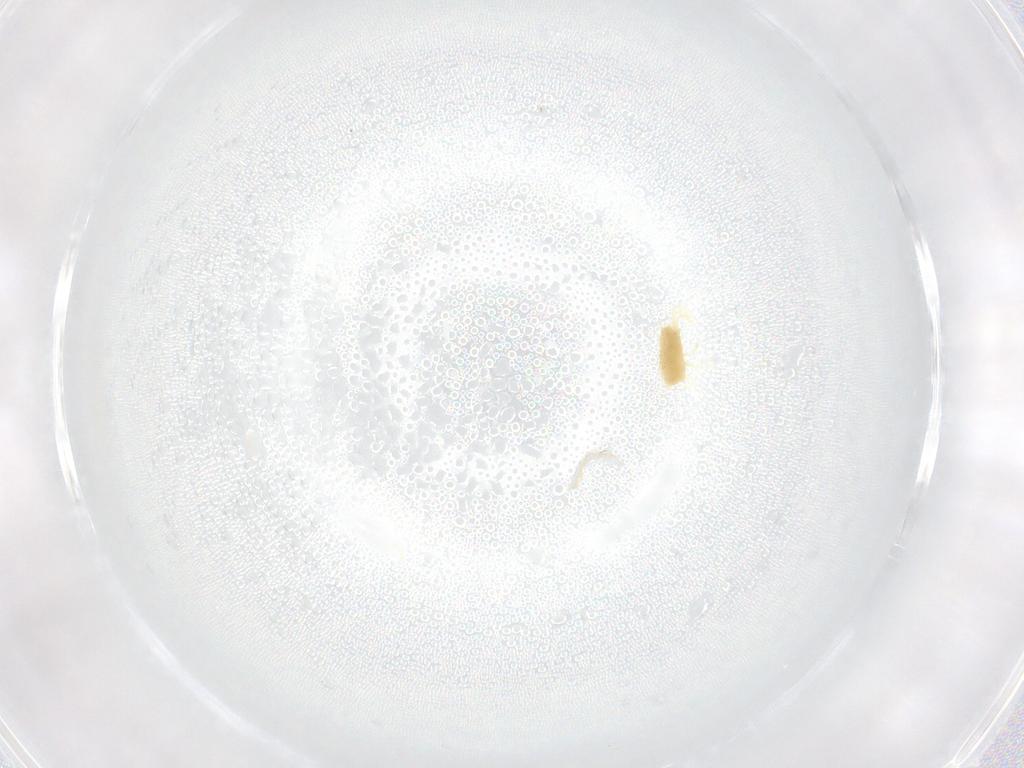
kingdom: Animalia
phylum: Arthropoda
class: Arachnida
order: Trombidiformes
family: Tetranychidae
